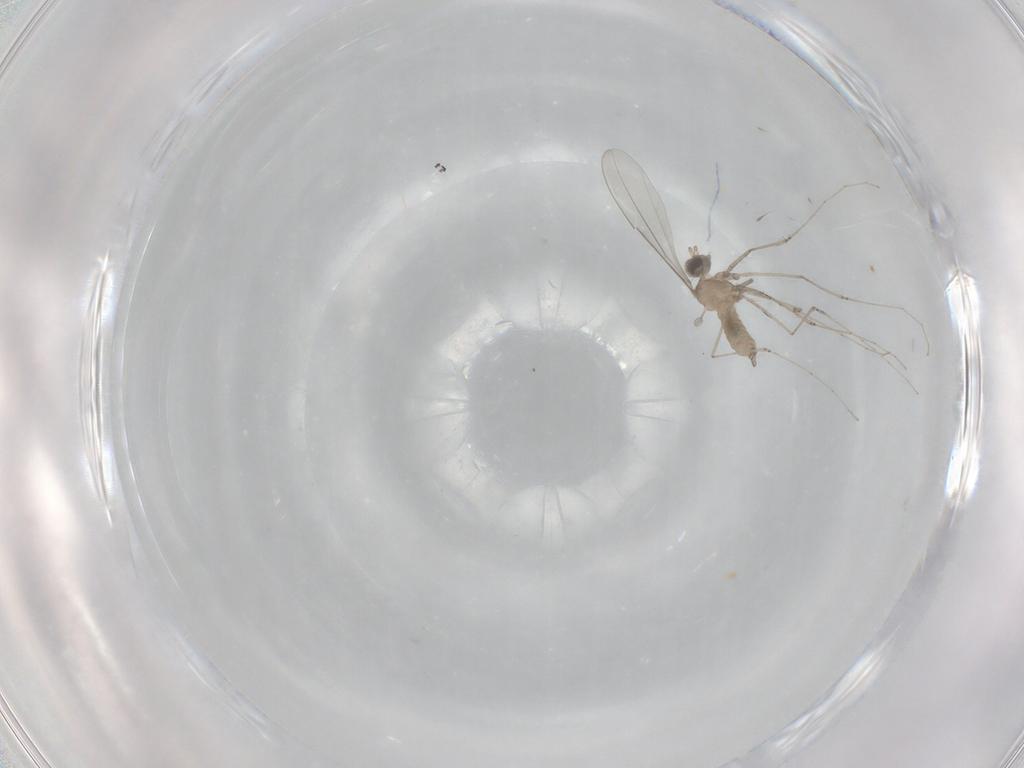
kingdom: Animalia
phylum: Arthropoda
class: Insecta
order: Diptera
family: Cecidomyiidae
